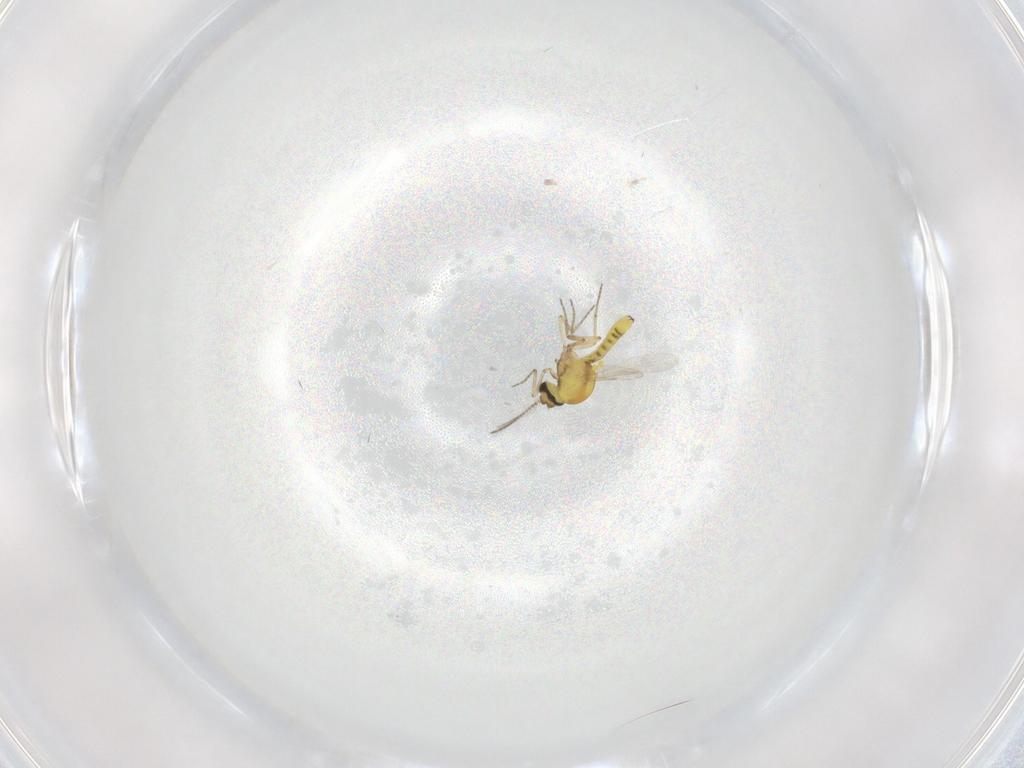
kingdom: Animalia
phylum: Arthropoda
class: Insecta
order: Diptera
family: Ceratopogonidae
